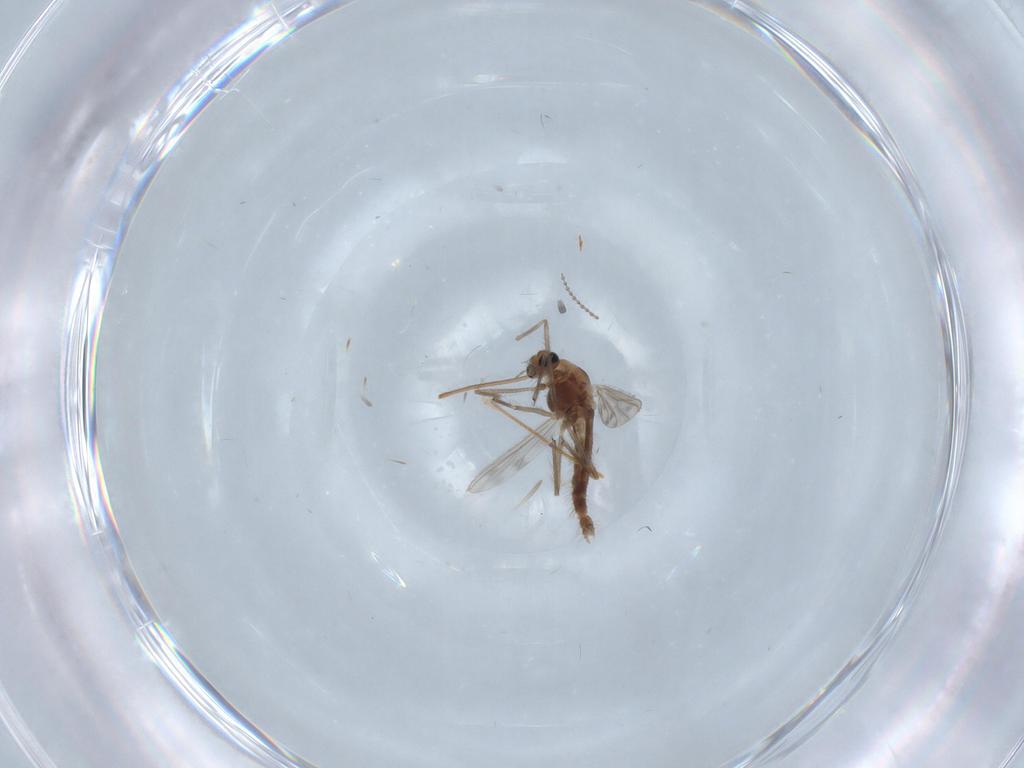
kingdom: Animalia
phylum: Arthropoda
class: Insecta
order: Diptera
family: Chironomidae
